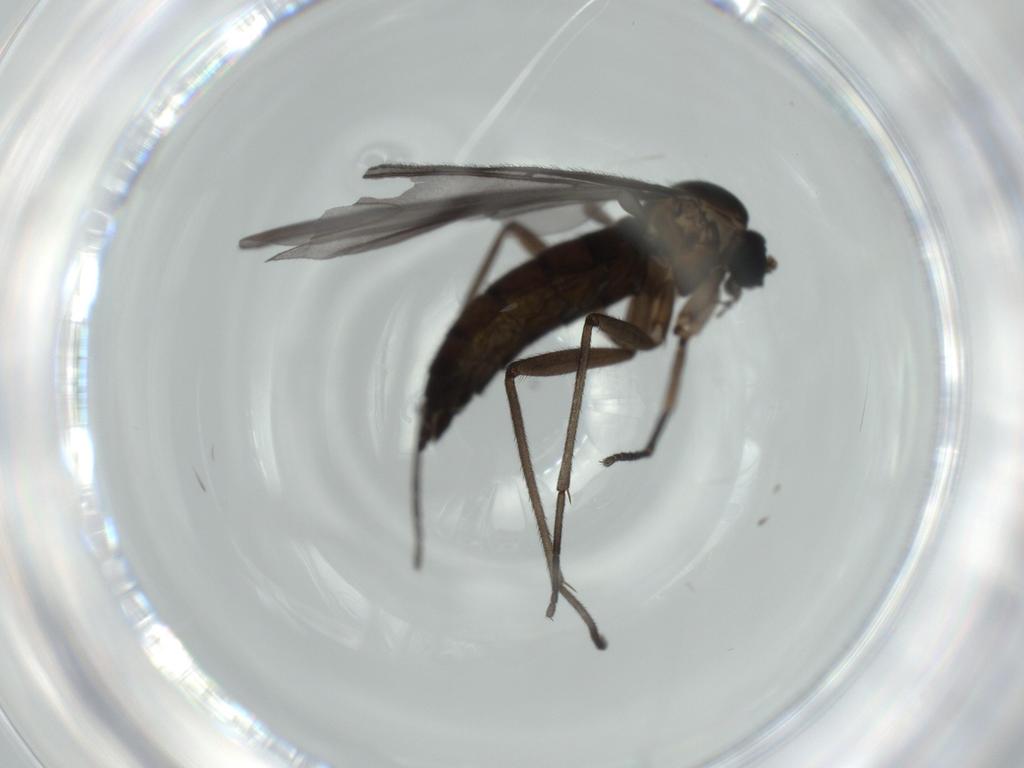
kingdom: Animalia
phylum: Arthropoda
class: Insecta
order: Diptera
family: Sciaridae
